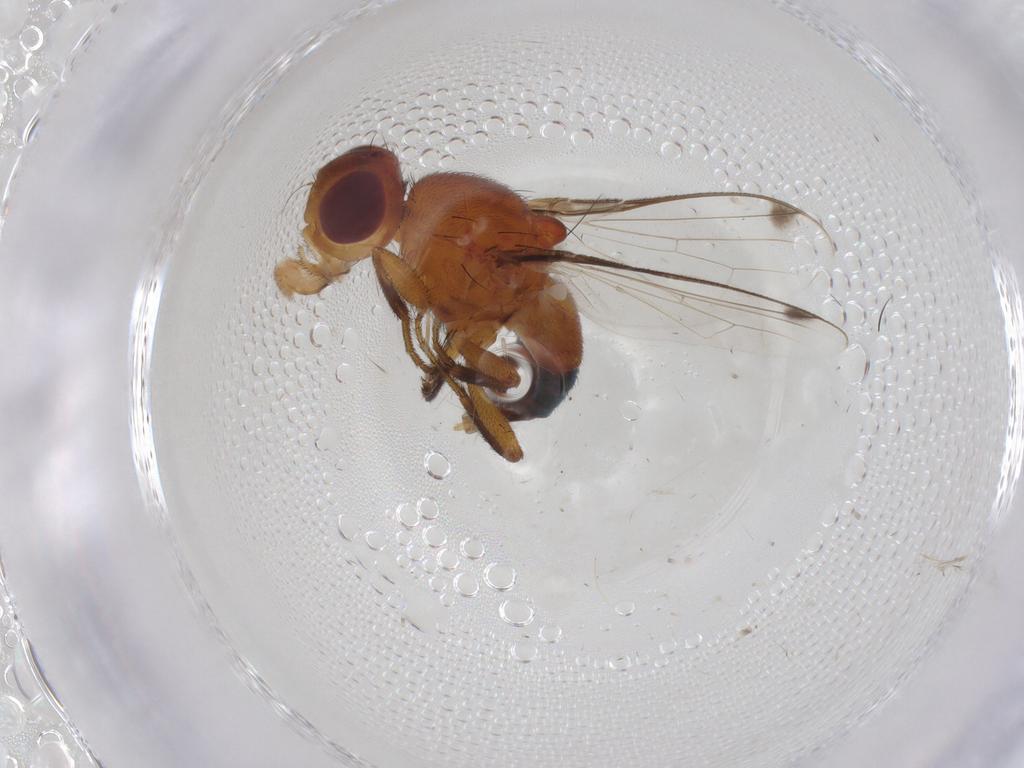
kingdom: Animalia
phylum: Arthropoda
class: Insecta
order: Diptera
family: Richardiidae
